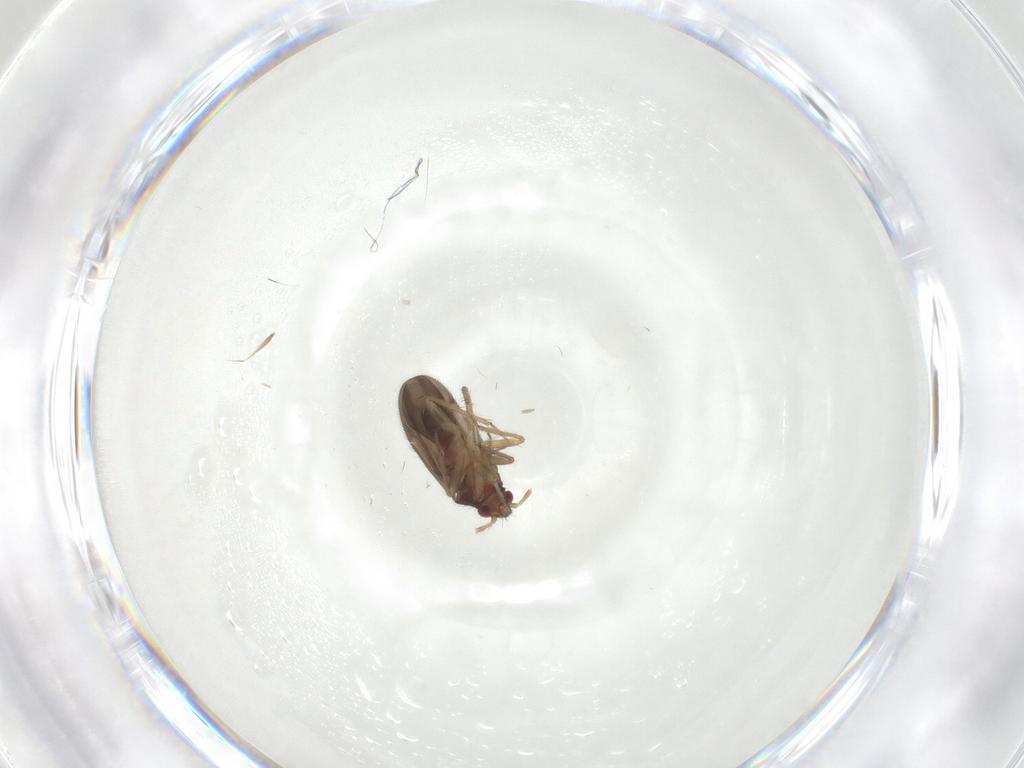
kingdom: Animalia
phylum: Arthropoda
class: Insecta
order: Hemiptera
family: Ceratocombidae
